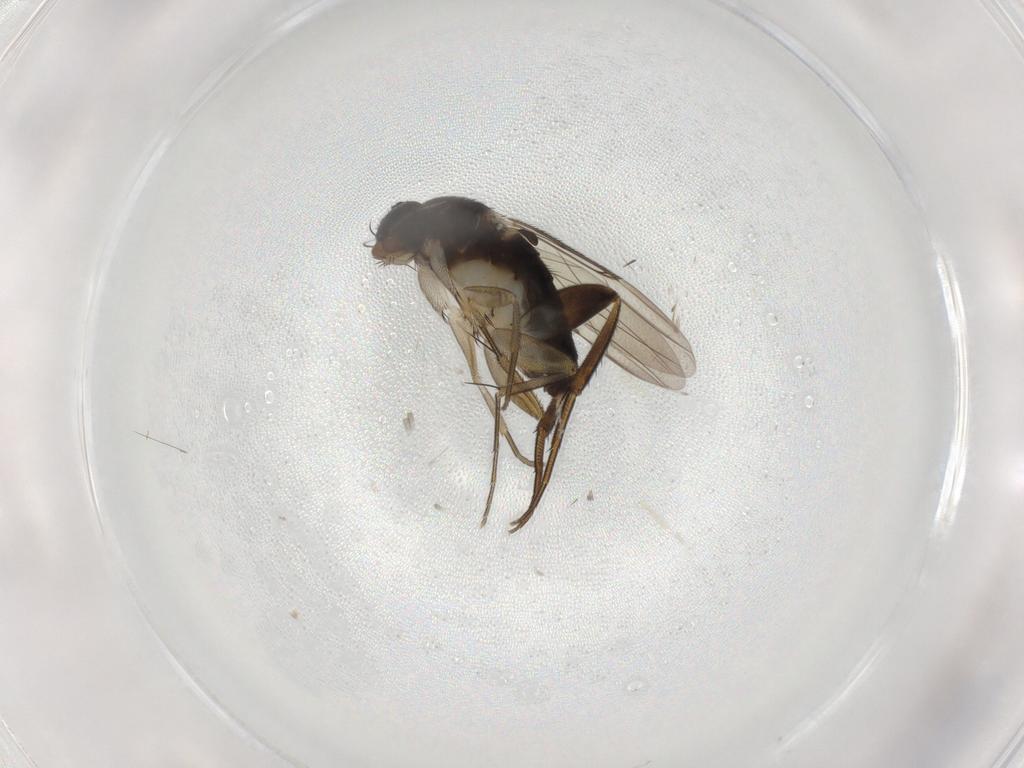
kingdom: Animalia
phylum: Arthropoda
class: Insecta
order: Diptera
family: Phoridae
